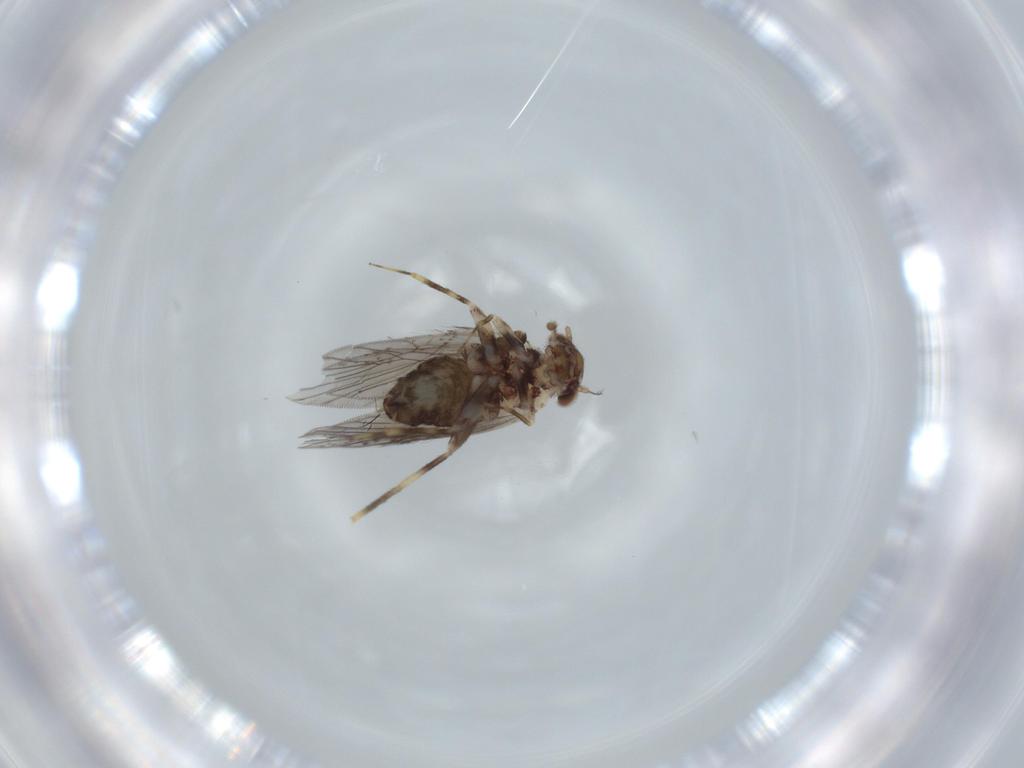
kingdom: Animalia
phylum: Arthropoda
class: Insecta
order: Psocodea
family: Lepidopsocidae
